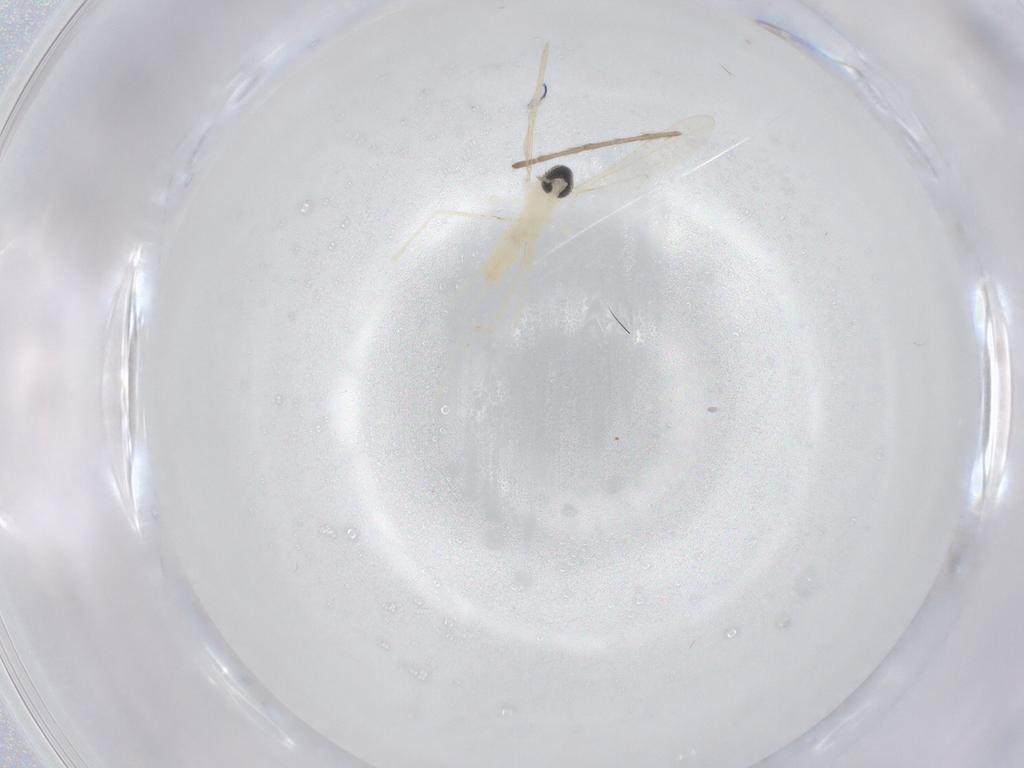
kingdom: Animalia
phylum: Arthropoda
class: Insecta
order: Diptera
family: Limoniidae
